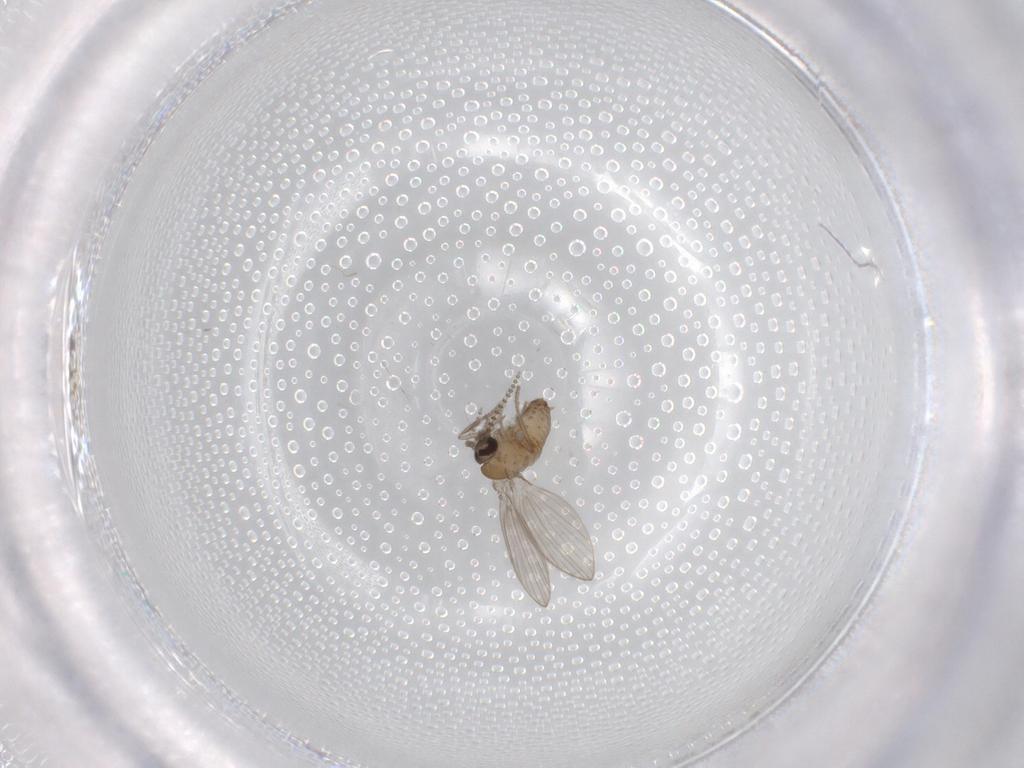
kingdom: Animalia
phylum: Arthropoda
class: Insecta
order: Diptera
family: Psychodidae
